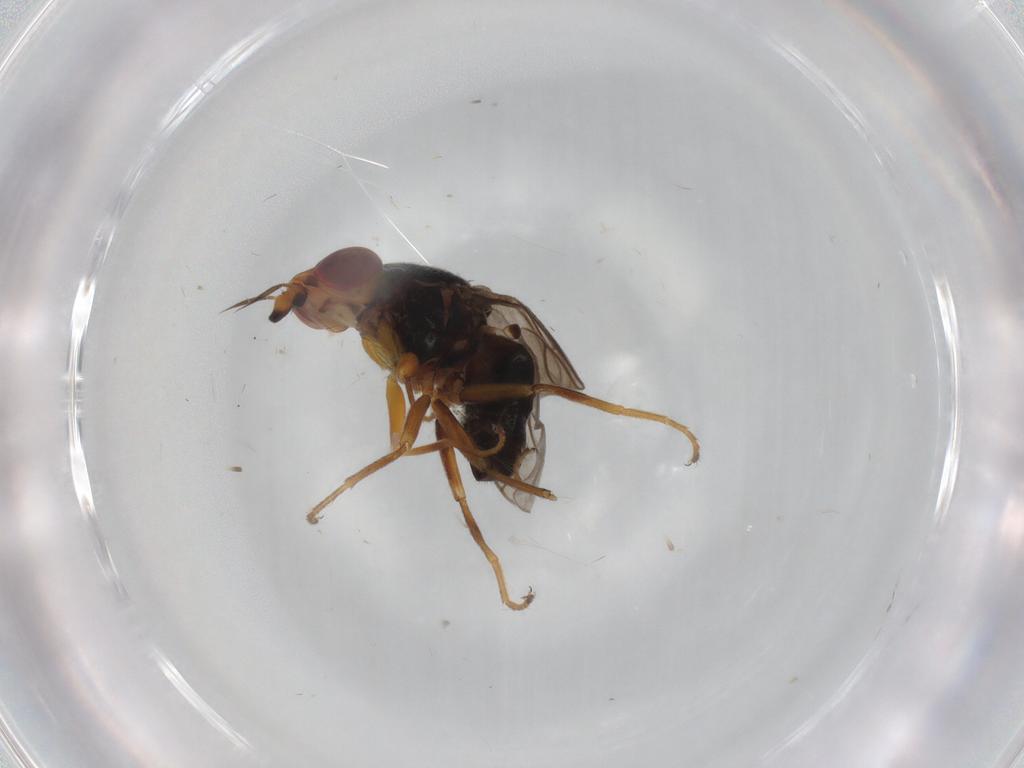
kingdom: Animalia
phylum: Arthropoda
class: Insecta
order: Diptera
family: Chloropidae
